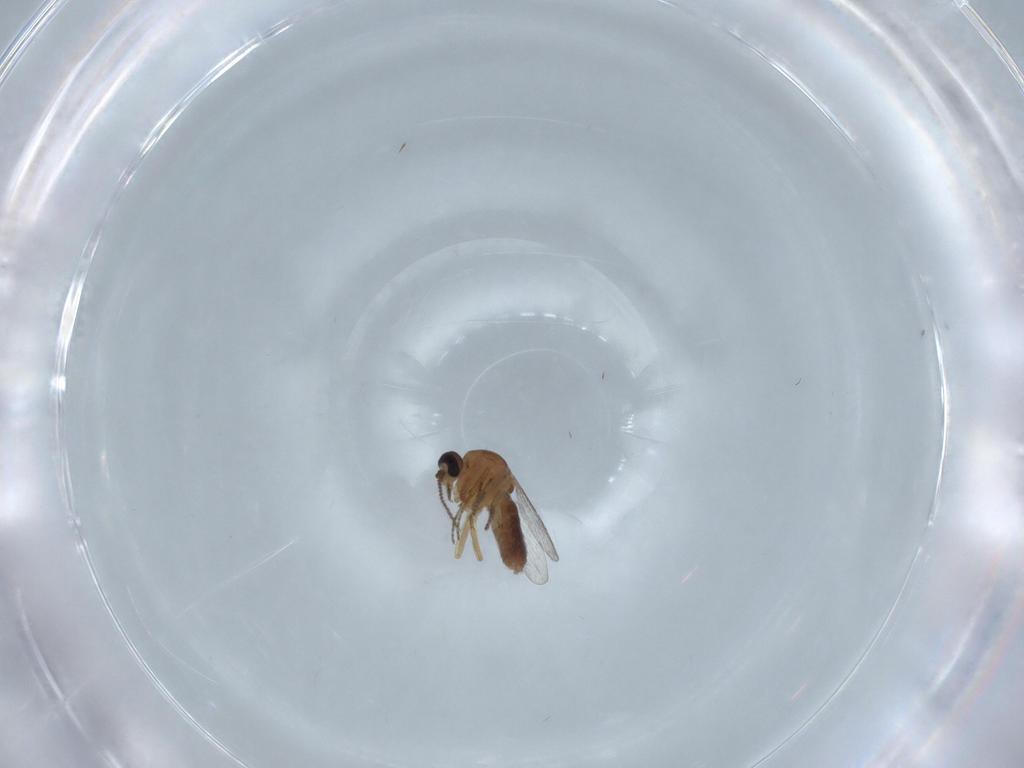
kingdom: Animalia
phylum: Arthropoda
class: Insecta
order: Diptera
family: Ceratopogonidae
